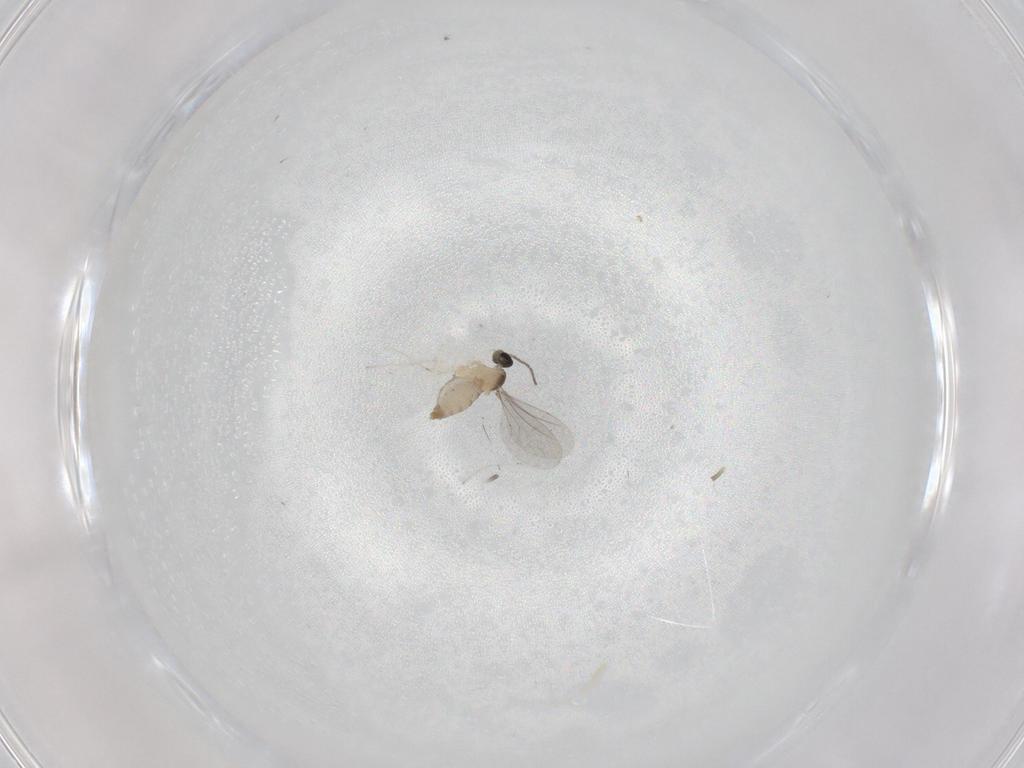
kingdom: Animalia
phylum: Arthropoda
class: Insecta
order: Diptera
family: Cecidomyiidae
